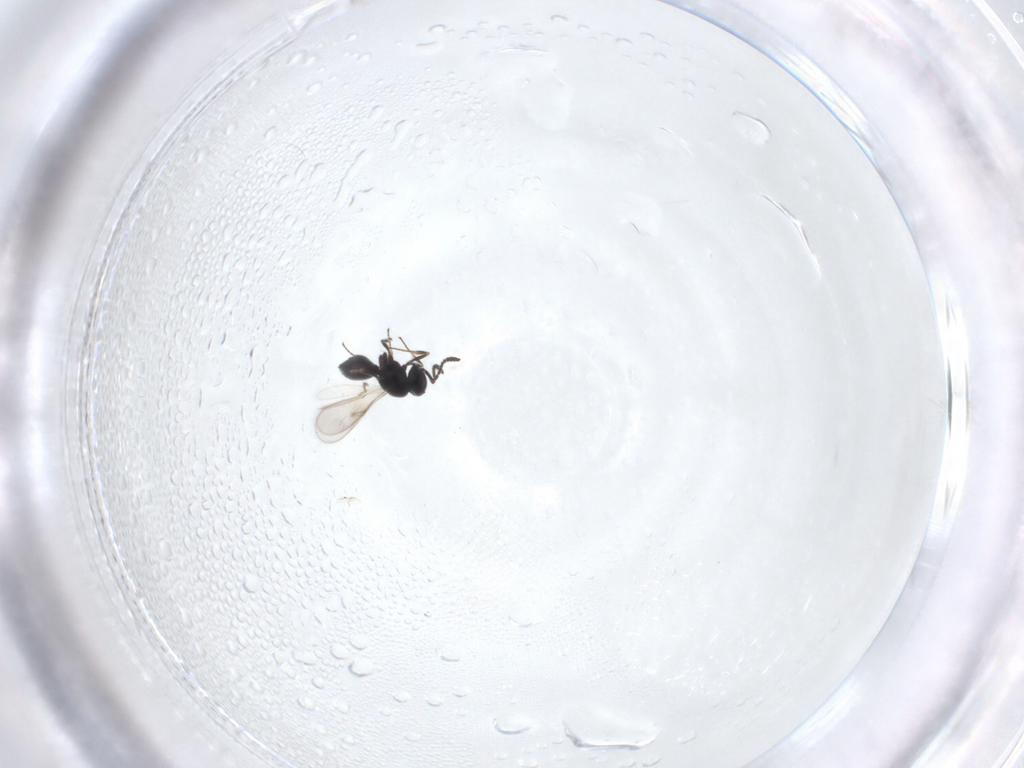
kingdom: Animalia
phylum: Arthropoda
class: Insecta
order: Hymenoptera
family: Scelionidae
